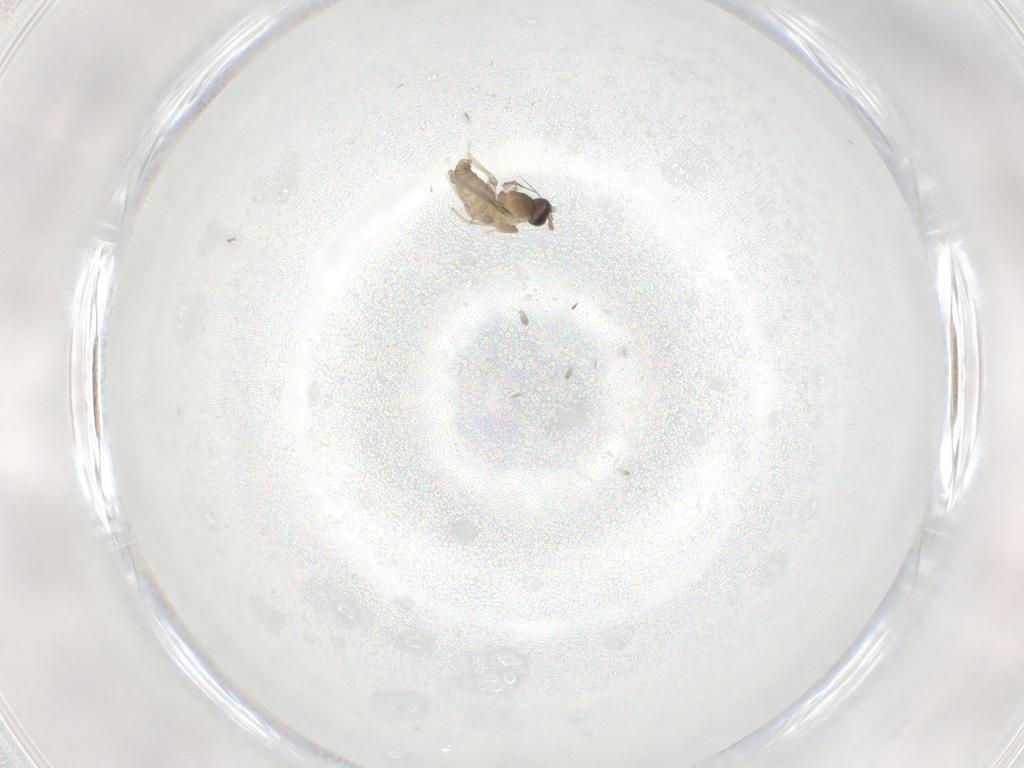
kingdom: Animalia
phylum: Arthropoda
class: Insecta
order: Diptera
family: Cecidomyiidae
